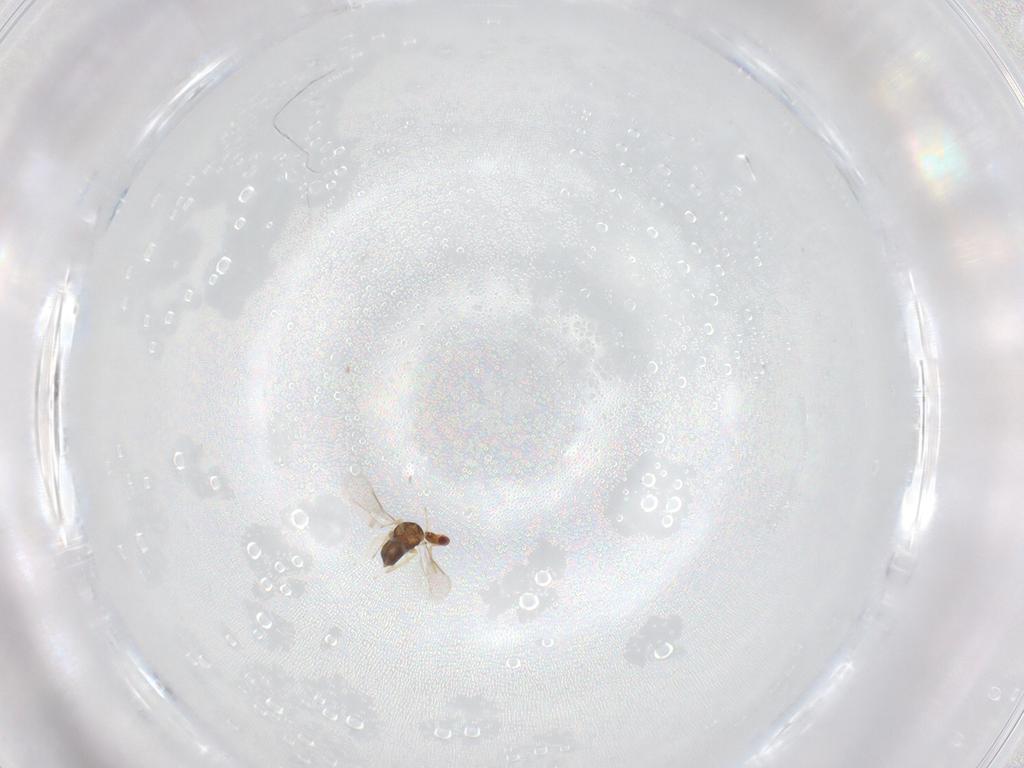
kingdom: Animalia
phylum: Arthropoda
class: Insecta
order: Hymenoptera
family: Aphelinidae
